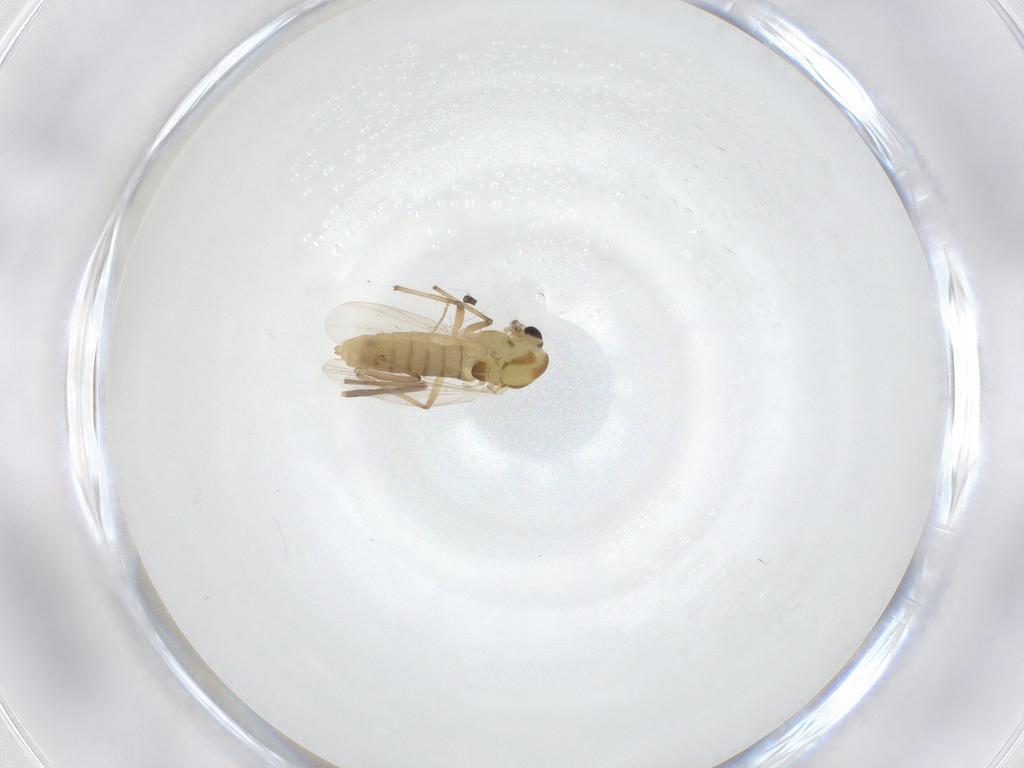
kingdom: Animalia
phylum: Arthropoda
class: Insecta
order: Diptera
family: Chironomidae
